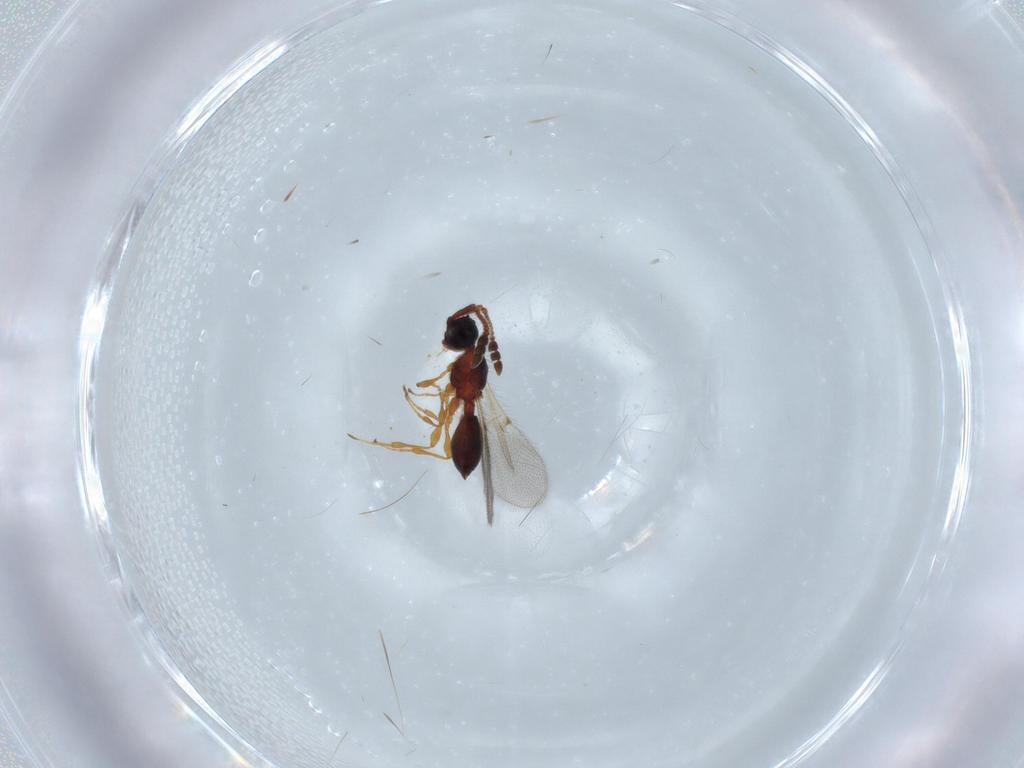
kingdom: Animalia
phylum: Arthropoda
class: Insecta
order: Hymenoptera
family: Diapriidae
